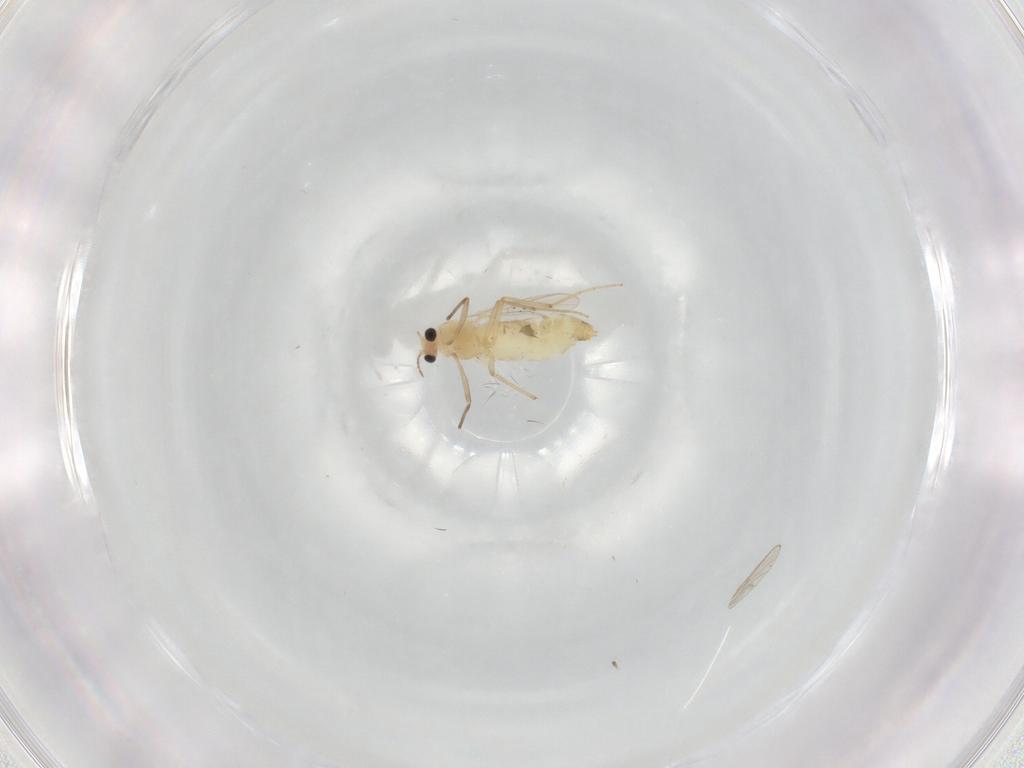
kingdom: Animalia
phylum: Arthropoda
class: Insecta
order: Diptera
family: Chironomidae
